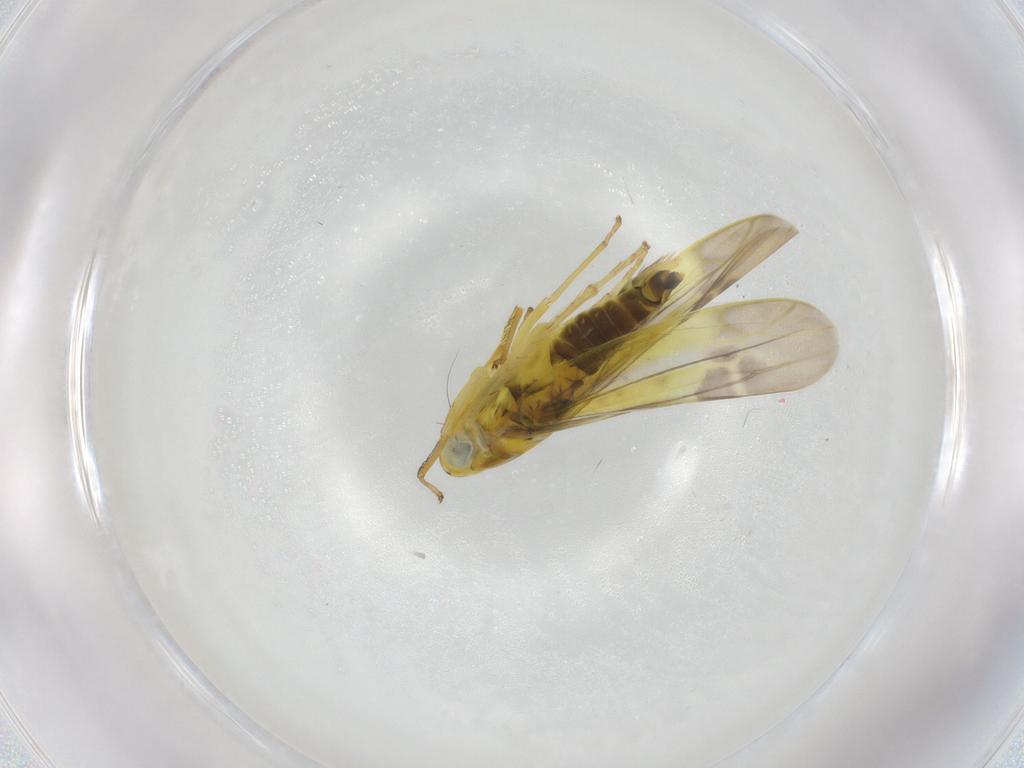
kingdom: Animalia
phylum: Arthropoda
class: Insecta
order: Hemiptera
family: Cicadellidae
